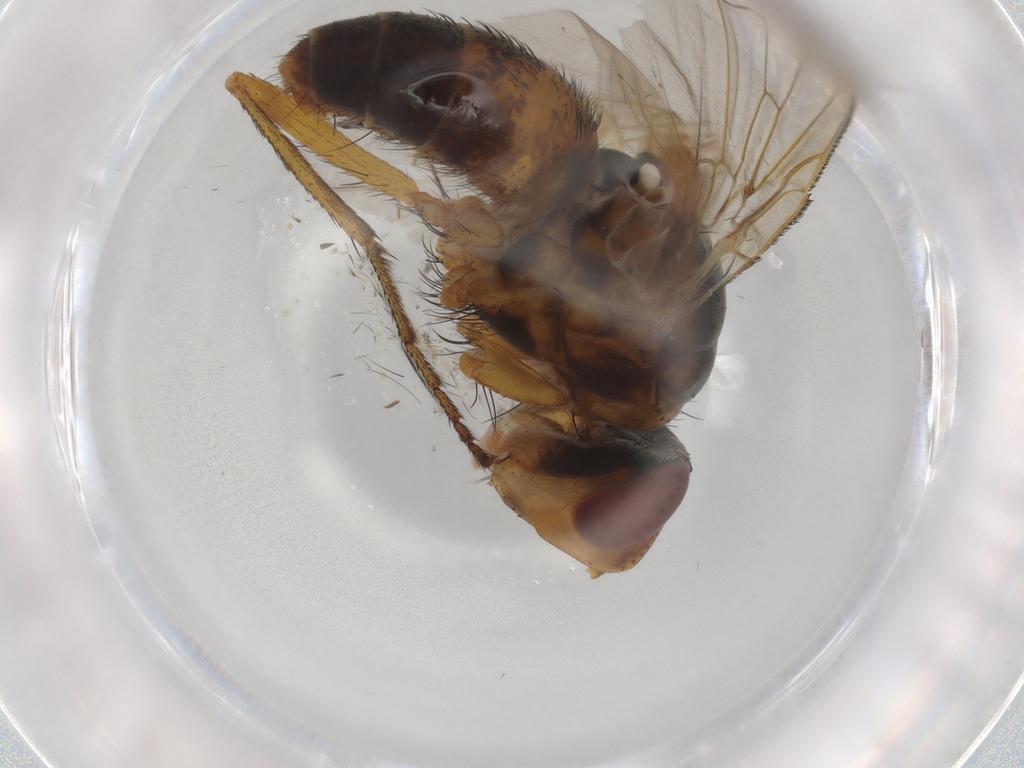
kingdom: Animalia
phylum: Arthropoda
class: Insecta
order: Diptera
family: Tachinidae
